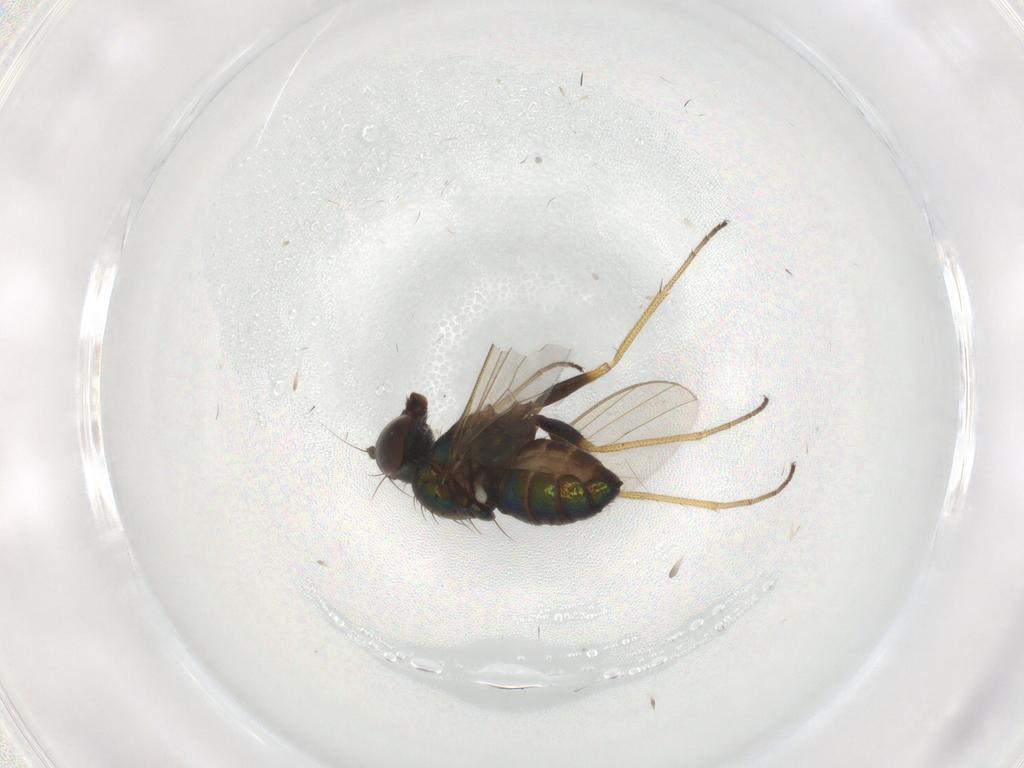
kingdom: Animalia
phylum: Arthropoda
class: Insecta
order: Diptera
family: Dolichopodidae
